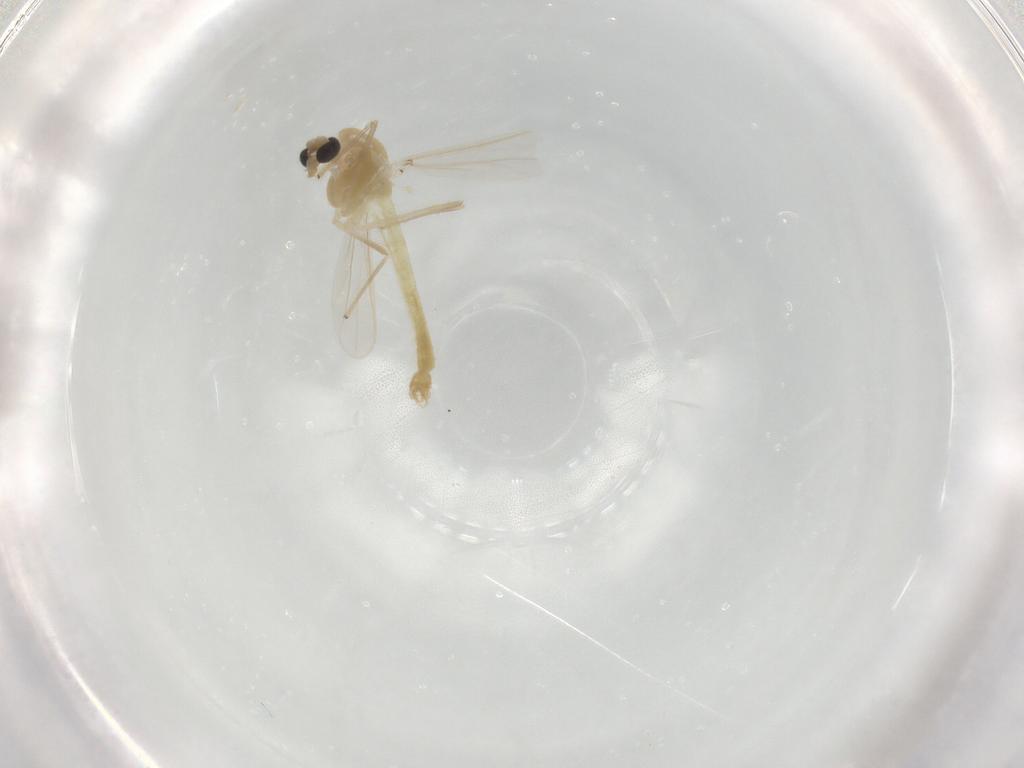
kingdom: Animalia
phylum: Arthropoda
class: Insecta
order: Diptera
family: Chironomidae
